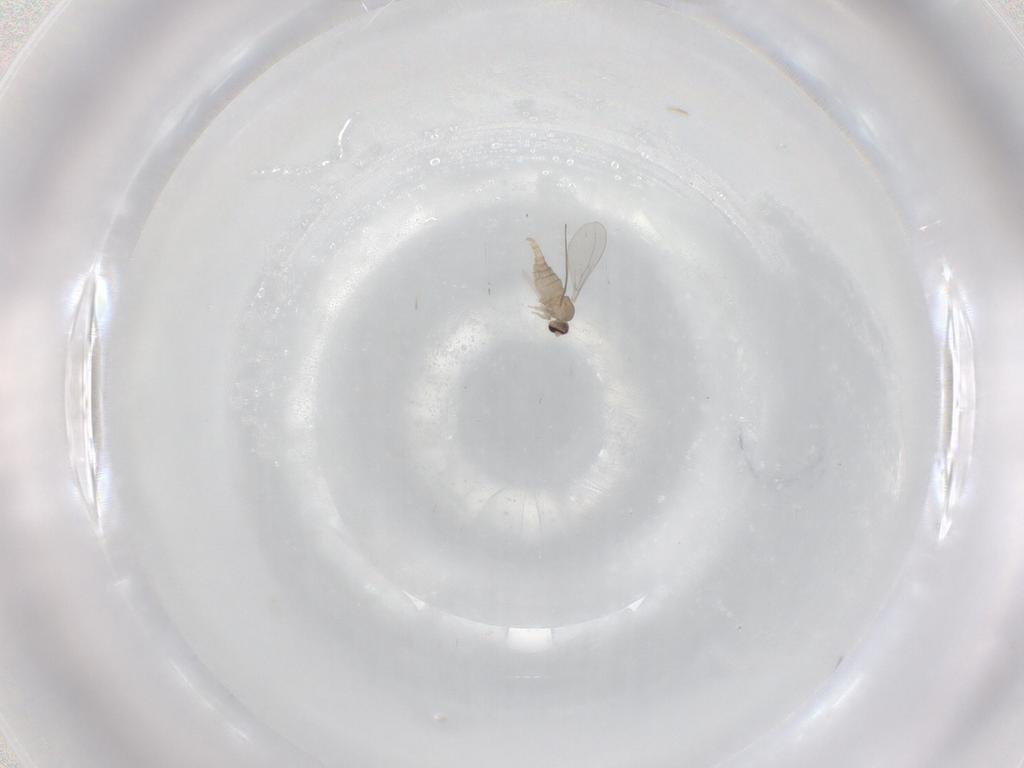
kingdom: Animalia
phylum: Arthropoda
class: Insecta
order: Diptera
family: Cecidomyiidae
